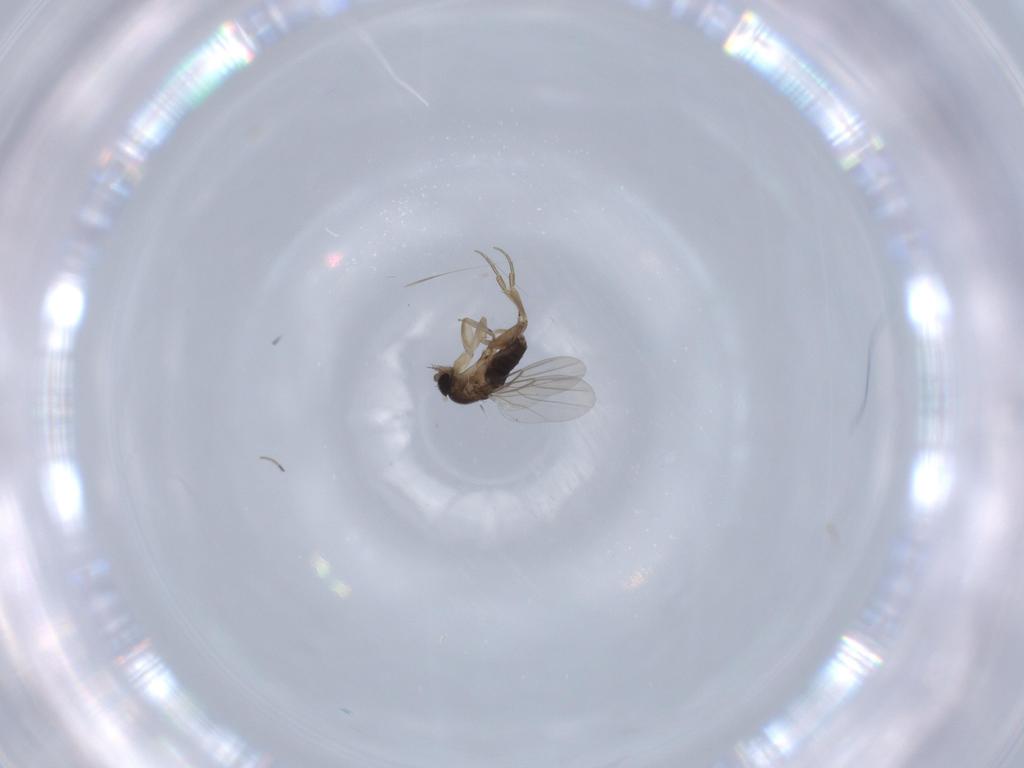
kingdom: Animalia
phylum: Arthropoda
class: Insecta
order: Diptera
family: Phoridae
